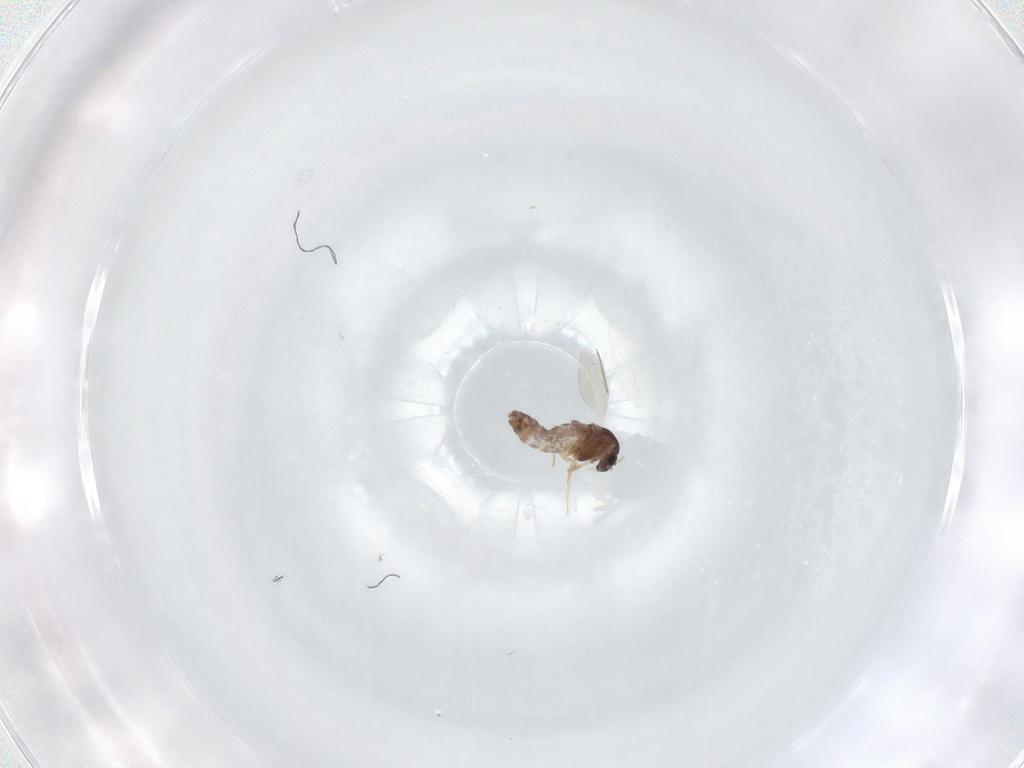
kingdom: Animalia
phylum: Arthropoda
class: Insecta
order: Diptera
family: Chironomidae
